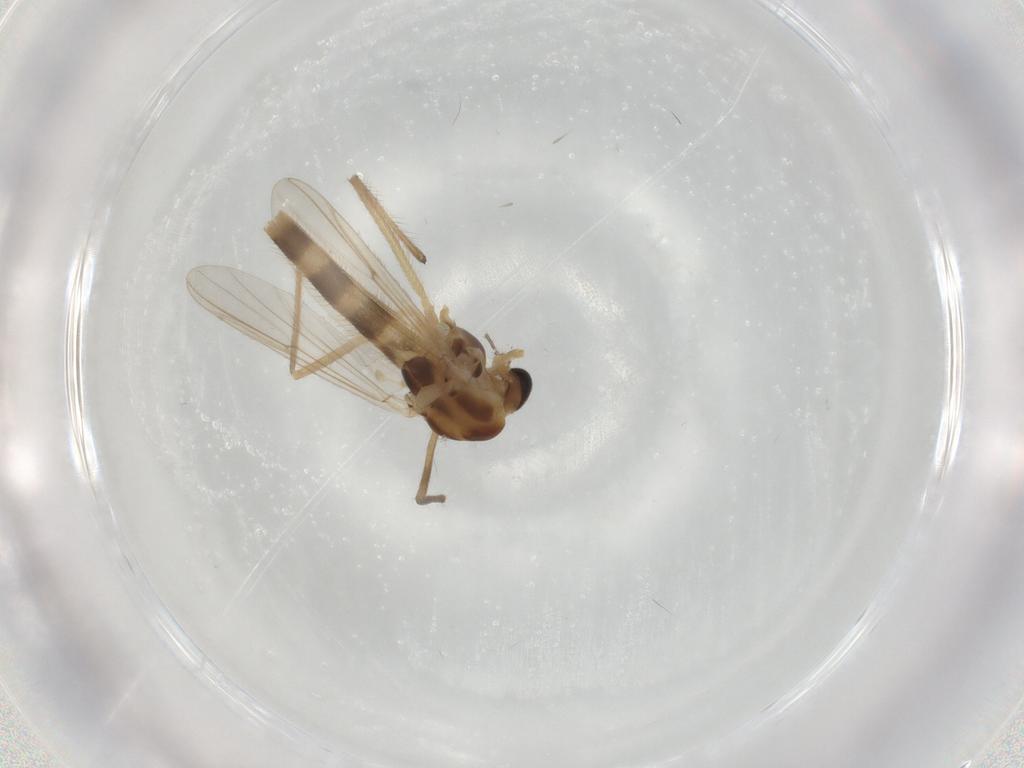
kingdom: Animalia
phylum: Arthropoda
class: Insecta
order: Diptera
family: Chironomidae
